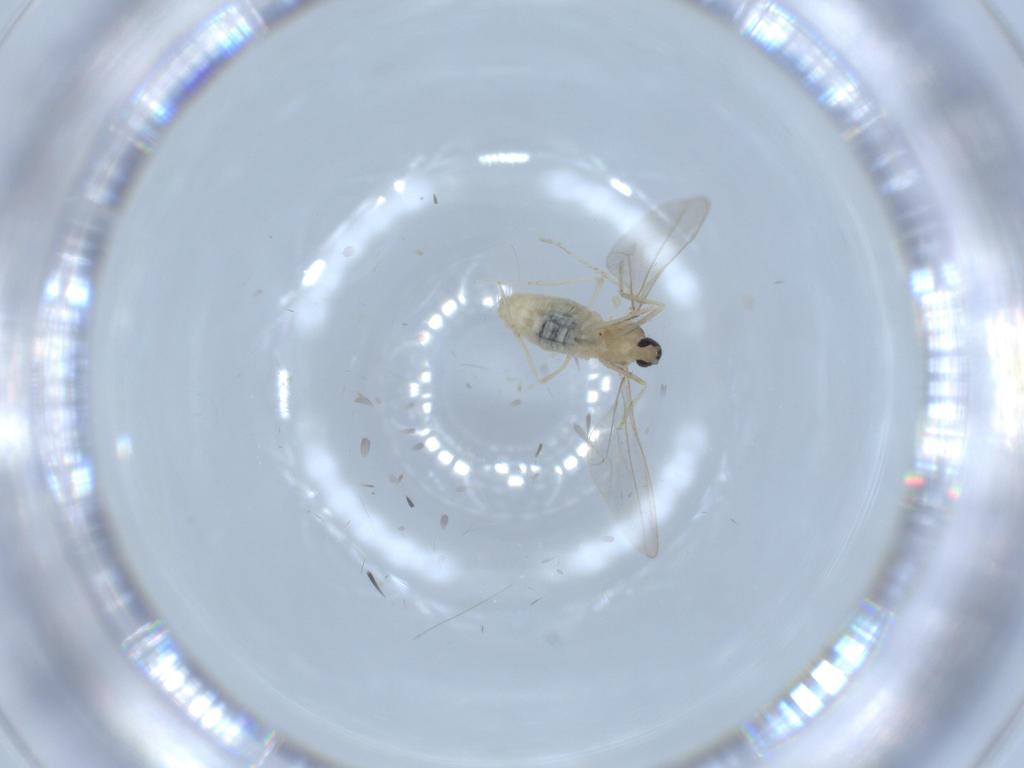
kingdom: Animalia
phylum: Arthropoda
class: Insecta
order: Diptera
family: Cecidomyiidae
